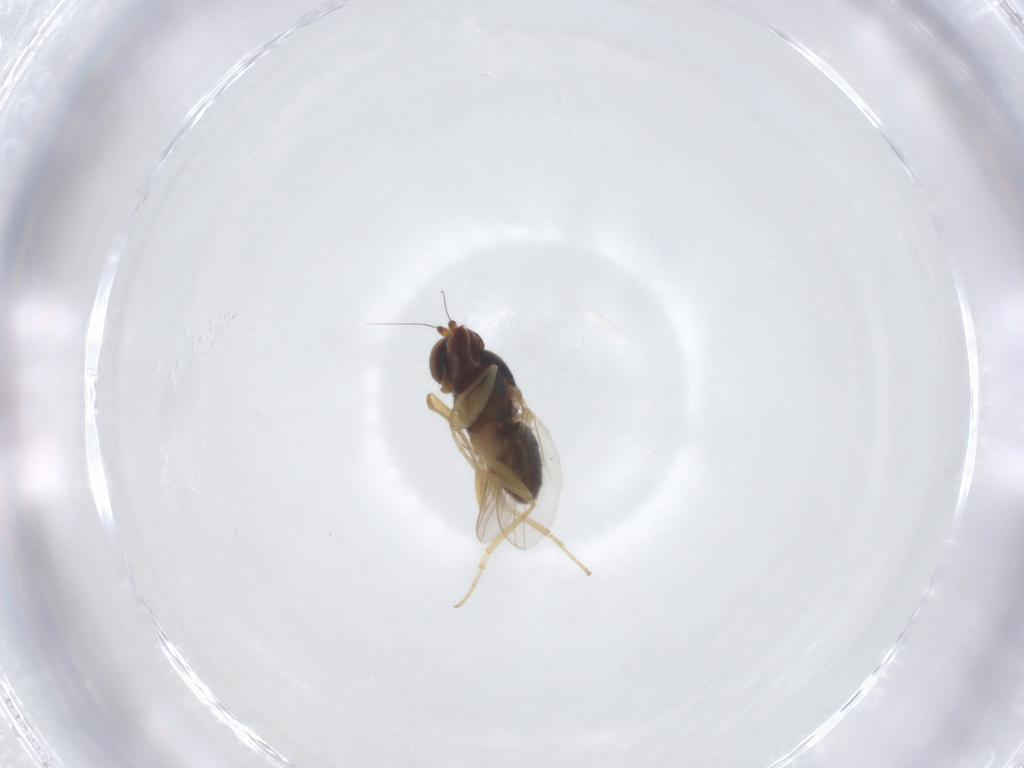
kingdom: Animalia
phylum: Arthropoda
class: Insecta
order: Diptera
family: Dolichopodidae
